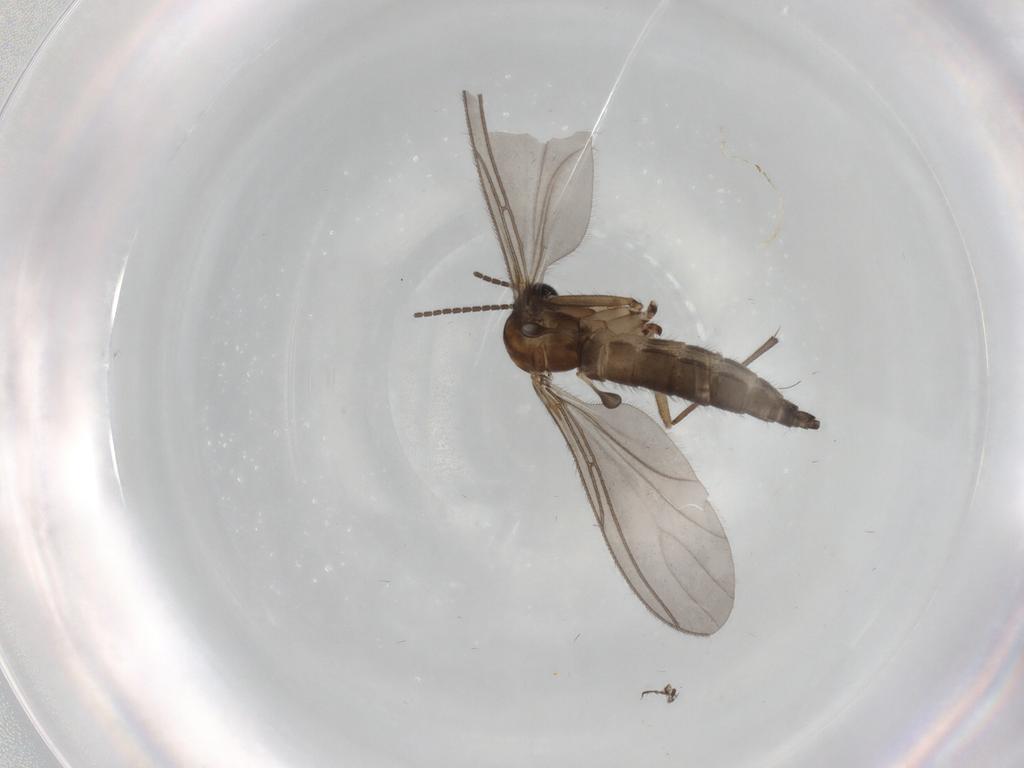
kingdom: Animalia
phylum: Arthropoda
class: Insecta
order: Diptera
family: Sciaridae
